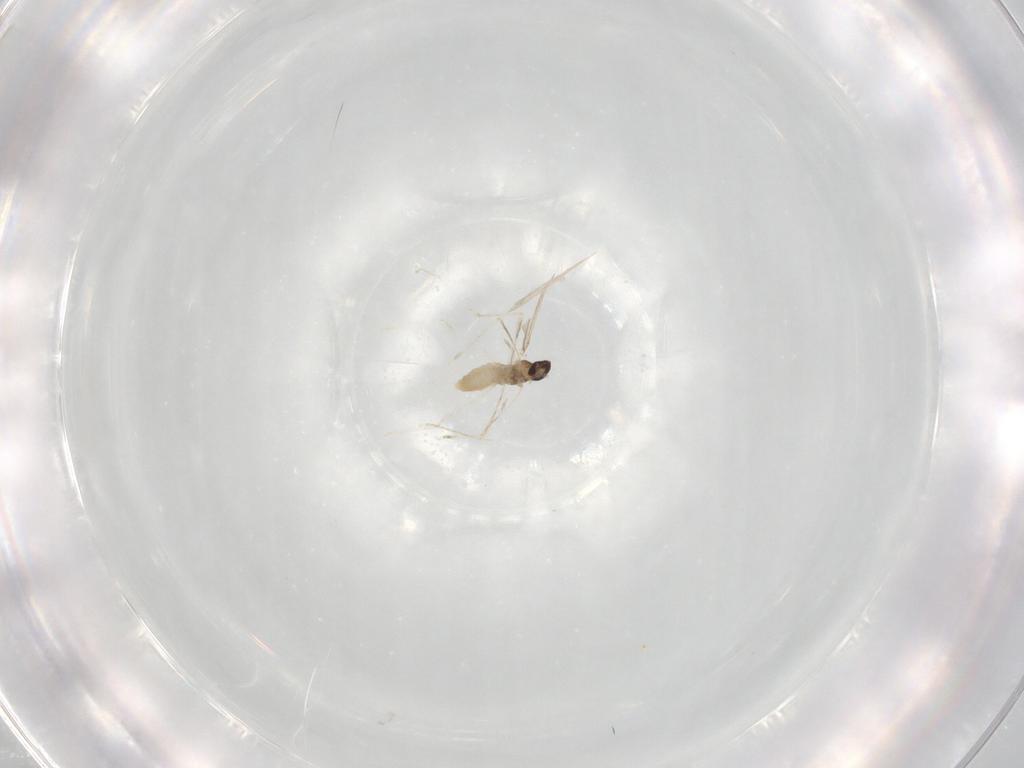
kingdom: Animalia
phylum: Arthropoda
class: Insecta
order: Diptera
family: Cecidomyiidae
